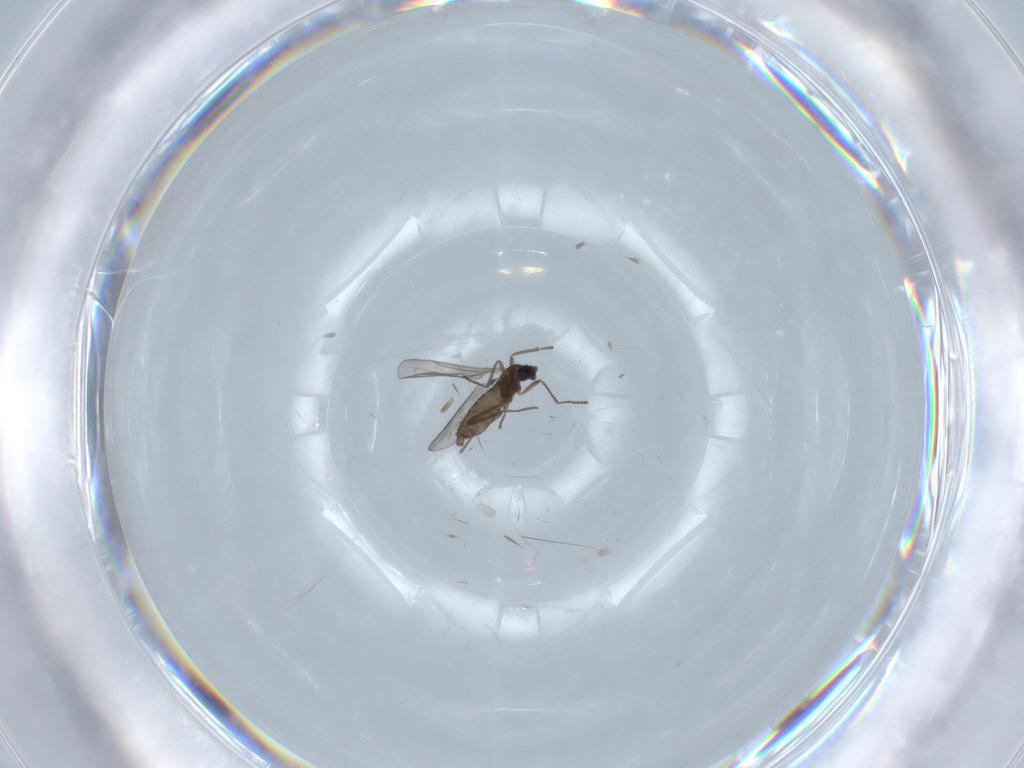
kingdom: Animalia
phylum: Arthropoda
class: Insecta
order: Diptera
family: Cecidomyiidae
